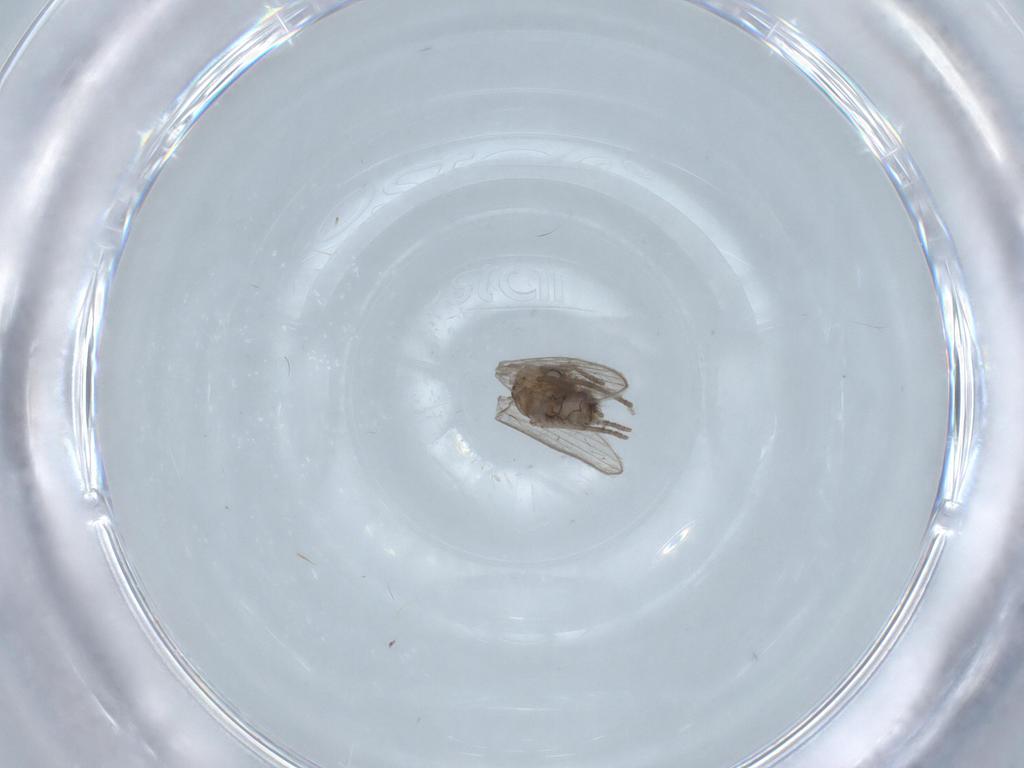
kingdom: Animalia
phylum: Arthropoda
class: Insecta
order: Diptera
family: Psychodidae
